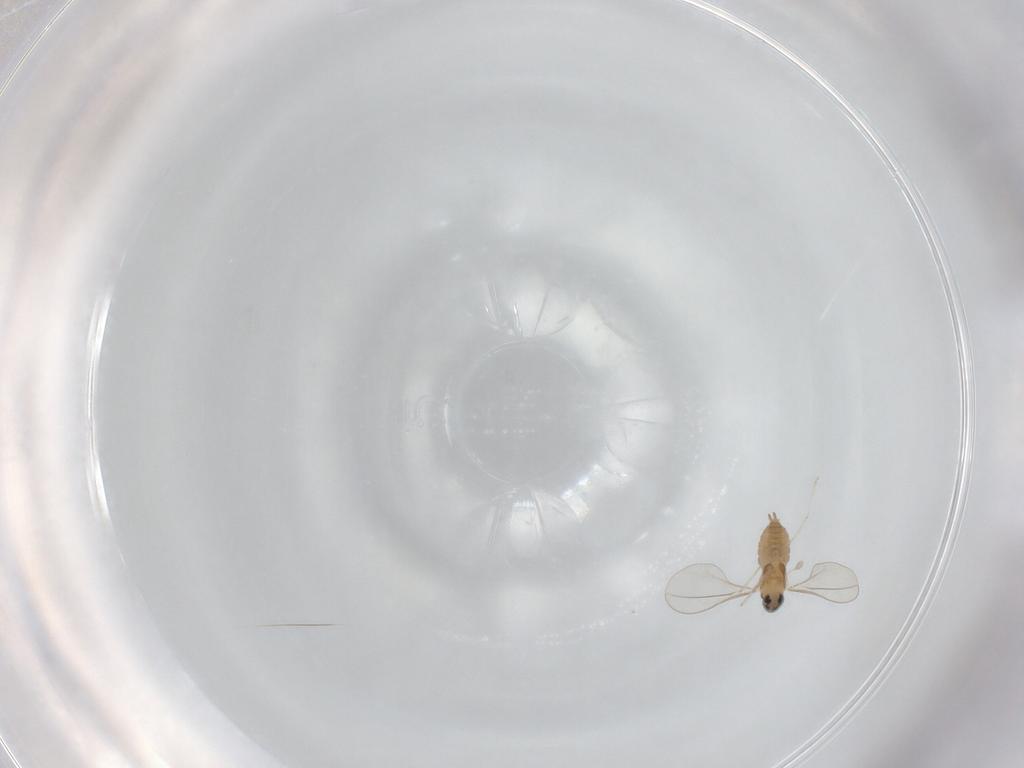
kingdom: Animalia
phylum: Arthropoda
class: Insecta
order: Diptera
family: Cecidomyiidae
